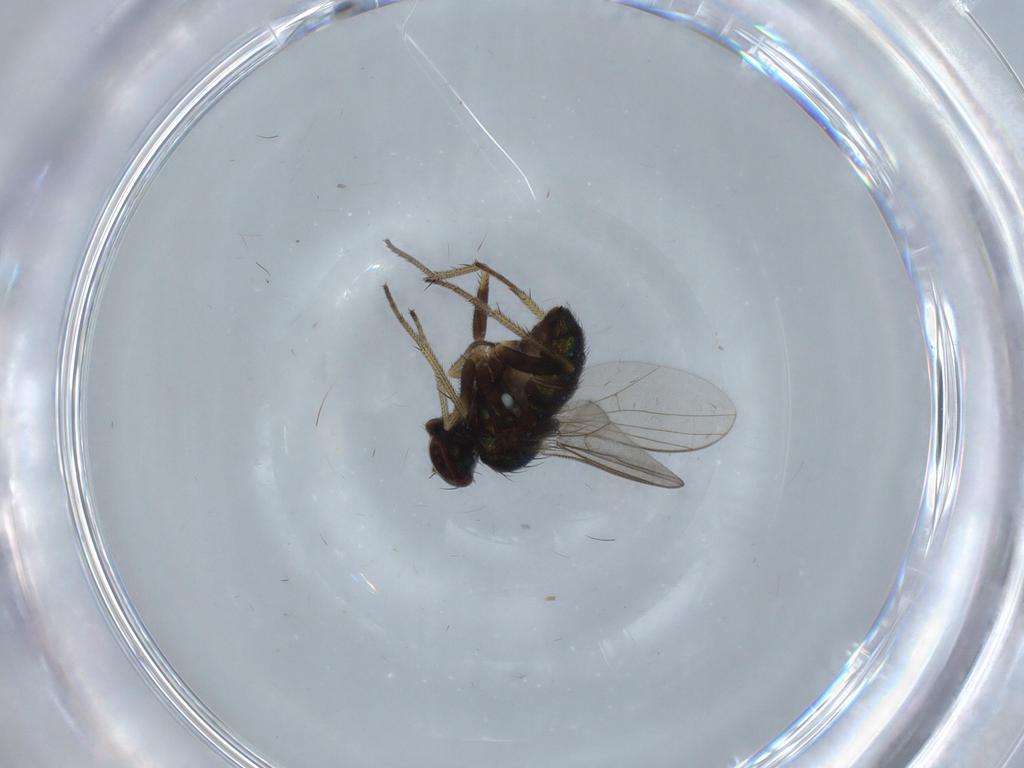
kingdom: Animalia
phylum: Arthropoda
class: Insecta
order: Diptera
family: Dolichopodidae
